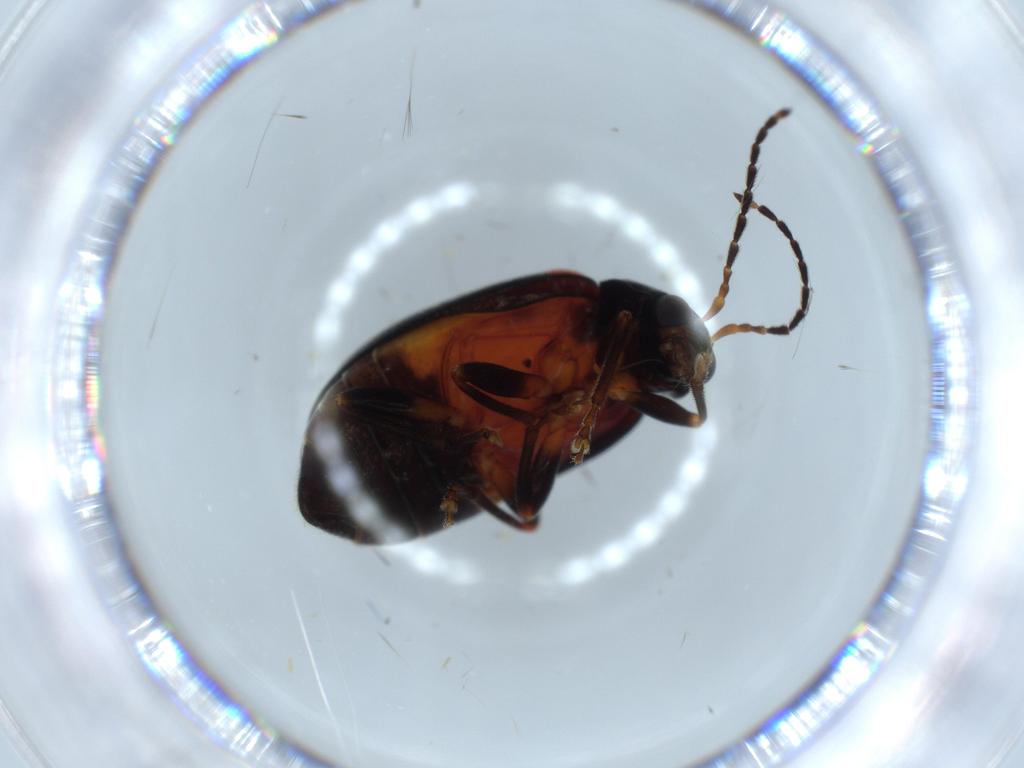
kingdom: Animalia
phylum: Arthropoda
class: Insecta
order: Coleoptera
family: Chrysomelidae
